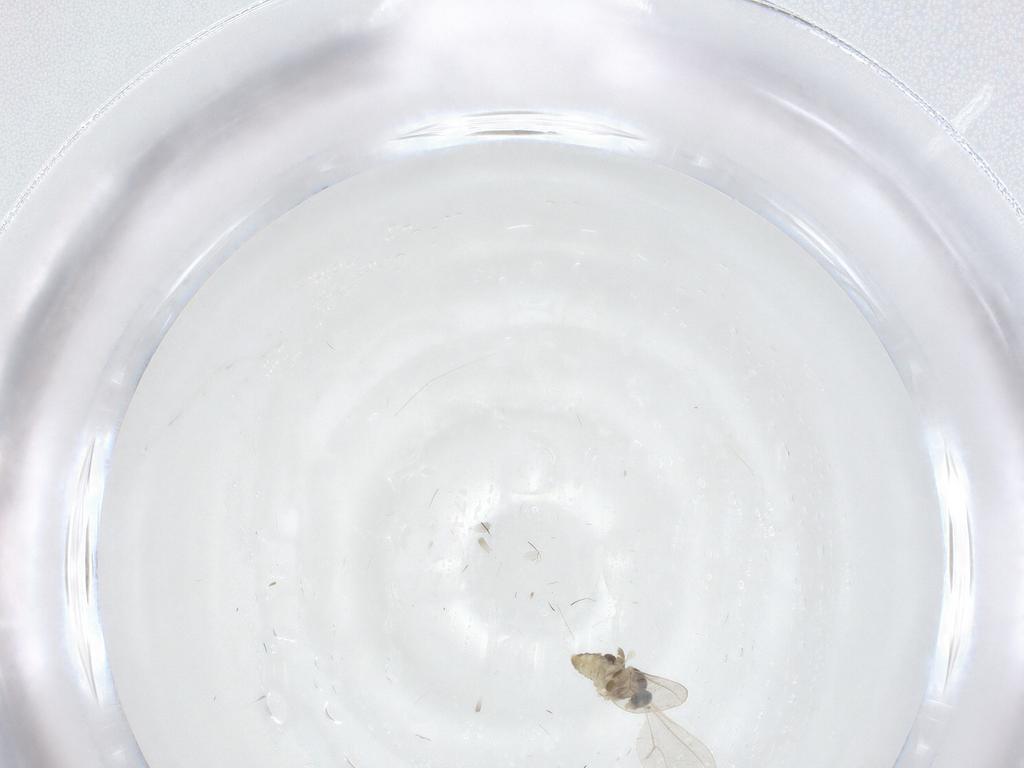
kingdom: Animalia
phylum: Arthropoda
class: Insecta
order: Diptera
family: Cecidomyiidae
